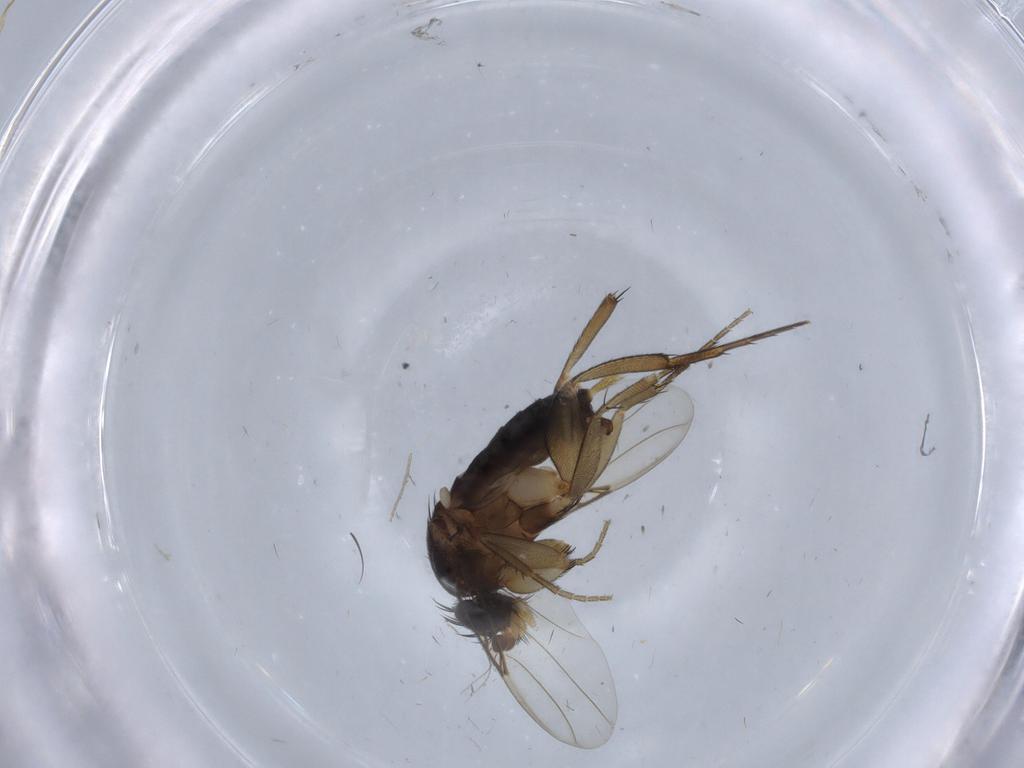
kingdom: Animalia
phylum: Arthropoda
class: Insecta
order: Diptera
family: Phoridae
